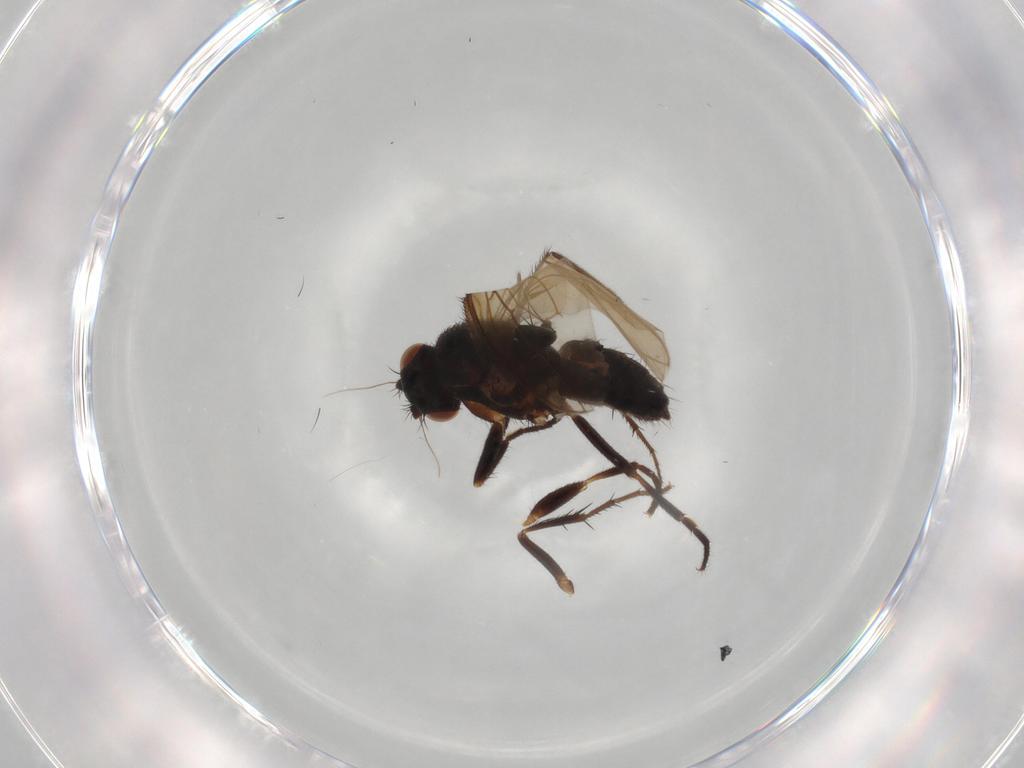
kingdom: Animalia
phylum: Arthropoda
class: Insecta
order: Diptera
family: Sphaeroceridae
